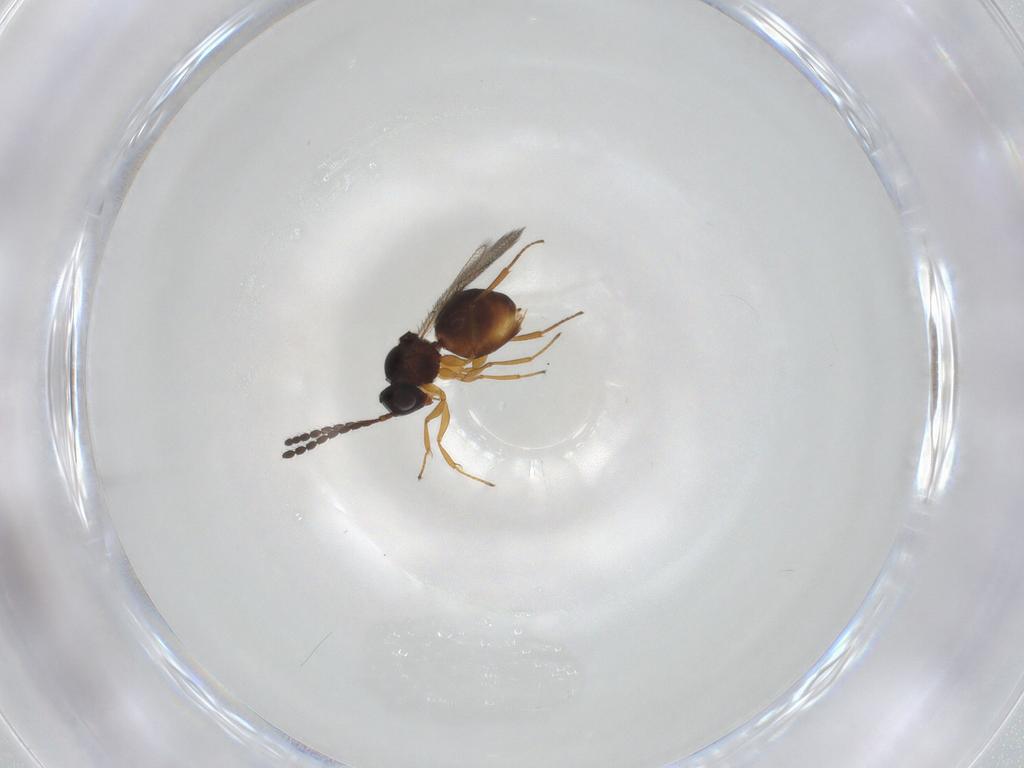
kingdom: Animalia
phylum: Arthropoda
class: Insecta
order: Hymenoptera
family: Figitidae
